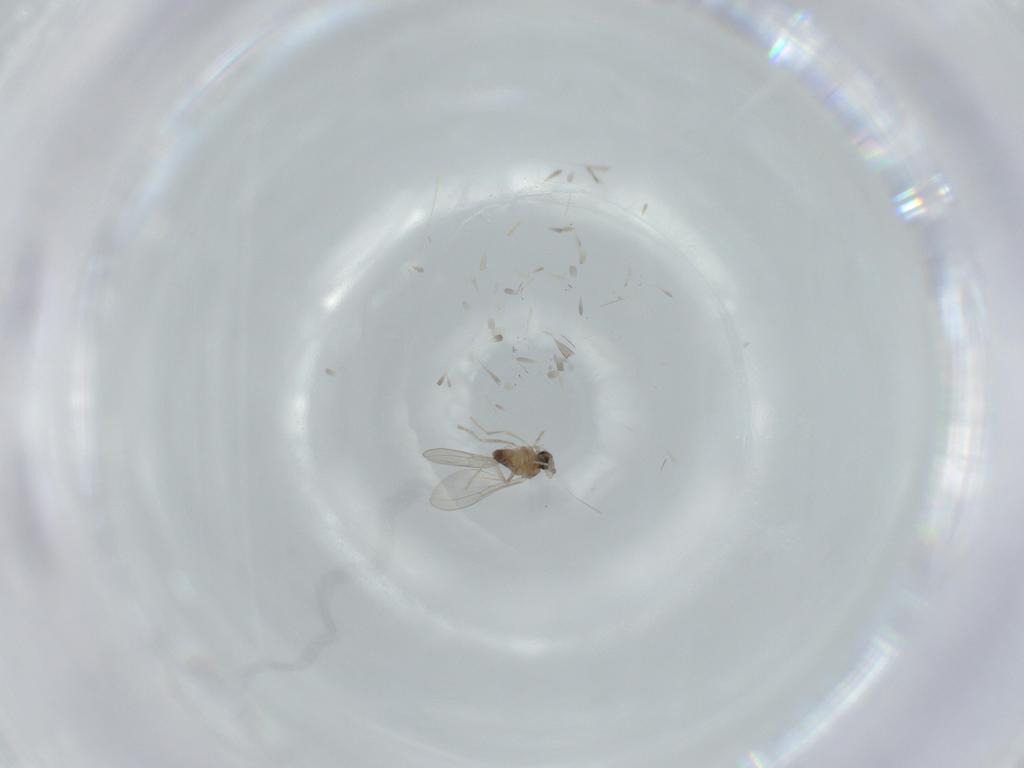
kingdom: Animalia
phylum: Arthropoda
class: Insecta
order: Diptera
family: Cecidomyiidae
